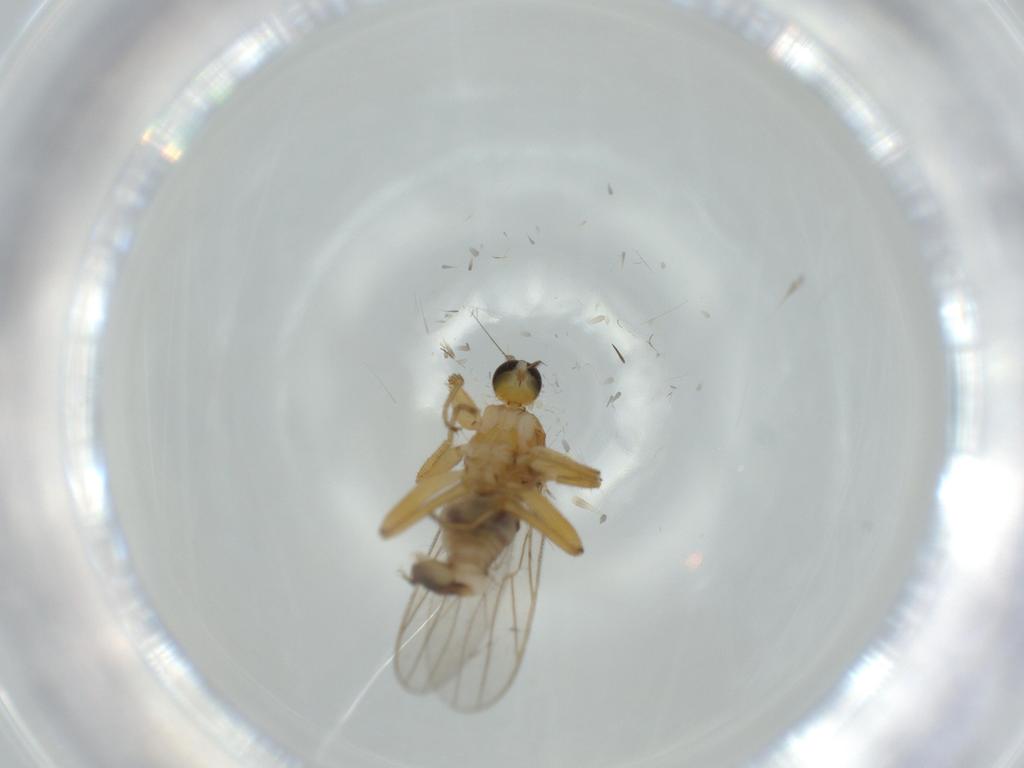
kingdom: Animalia
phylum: Arthropoda
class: Insecta
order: Diptera
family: Hybotidae
